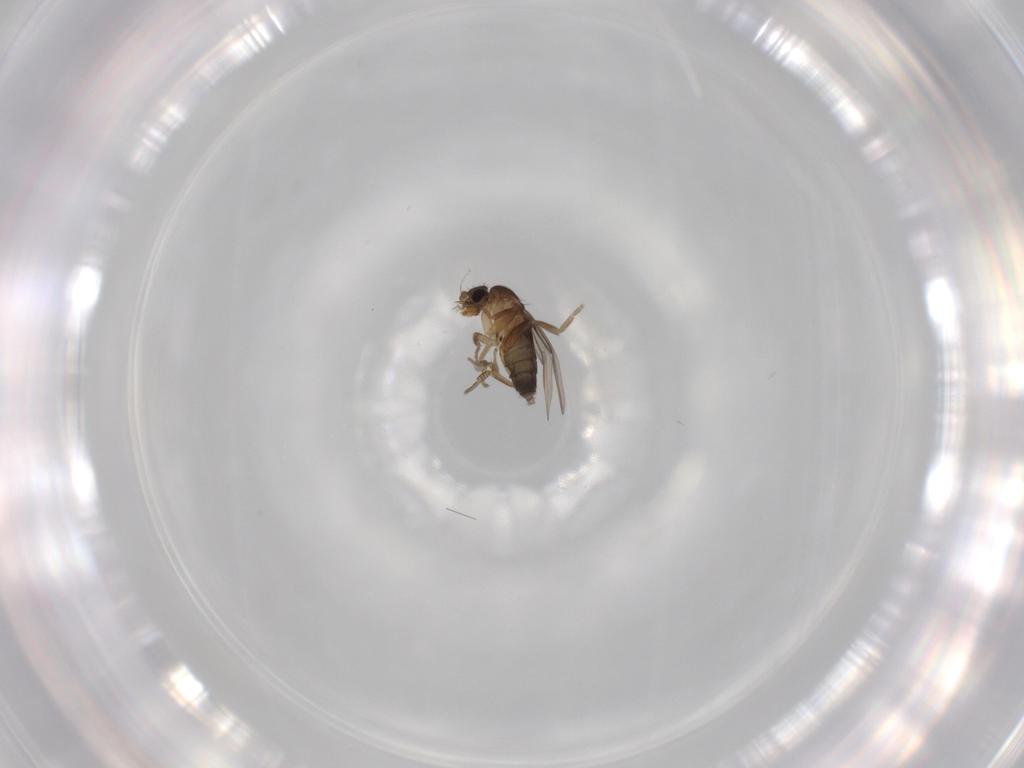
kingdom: Animalia
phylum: Arthropoda
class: Insecta
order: Diptera
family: Phoridae
